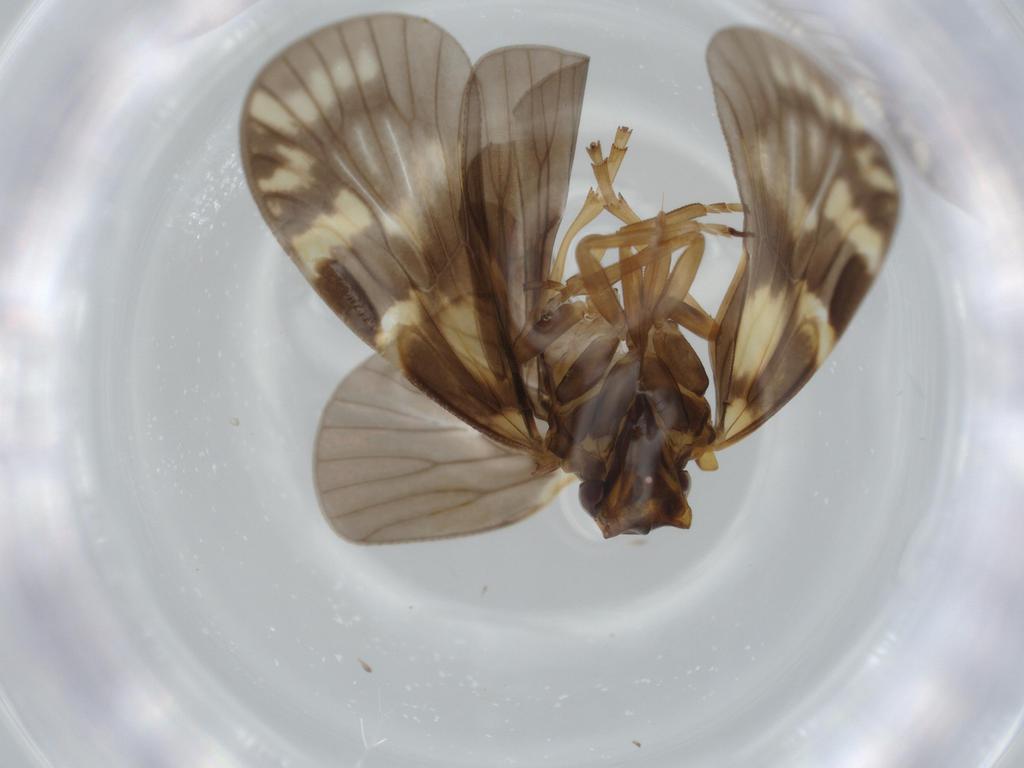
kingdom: Animalia
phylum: Arthropoda
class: Insecta
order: Hemiptera
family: Cixiidae
